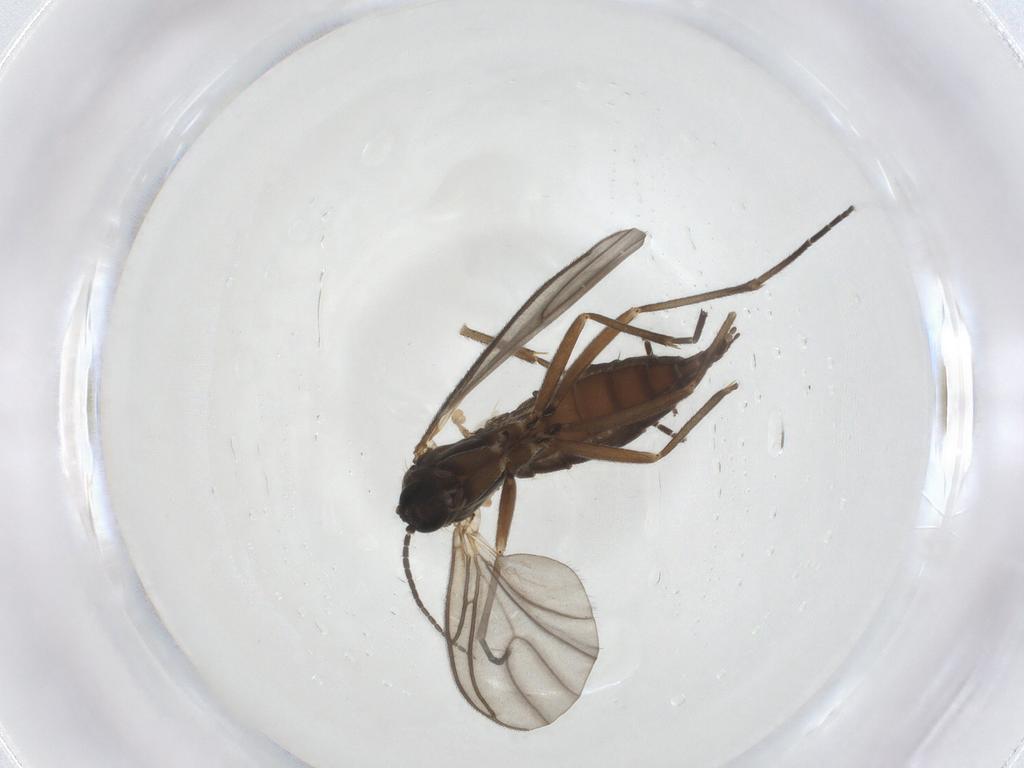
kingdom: Animalia
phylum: Arthropoda
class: Insecta
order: Diptera
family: Sciaridae
